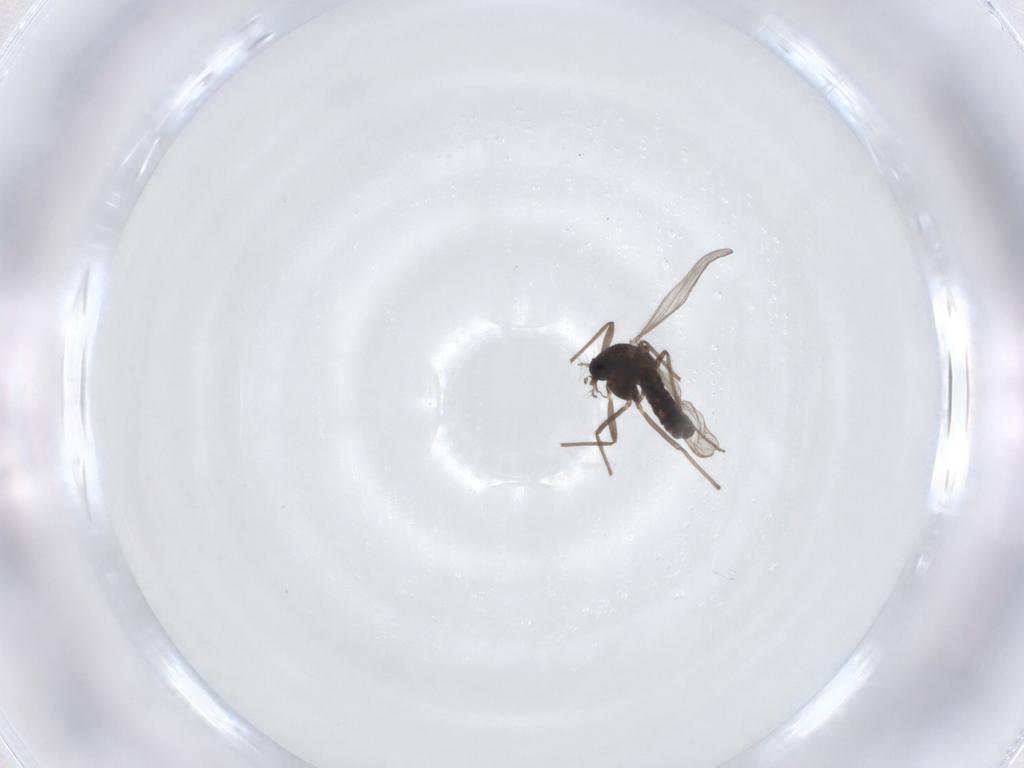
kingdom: Animalia
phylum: Arthropoda
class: Insecta
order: Diptera
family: Chironomidae
